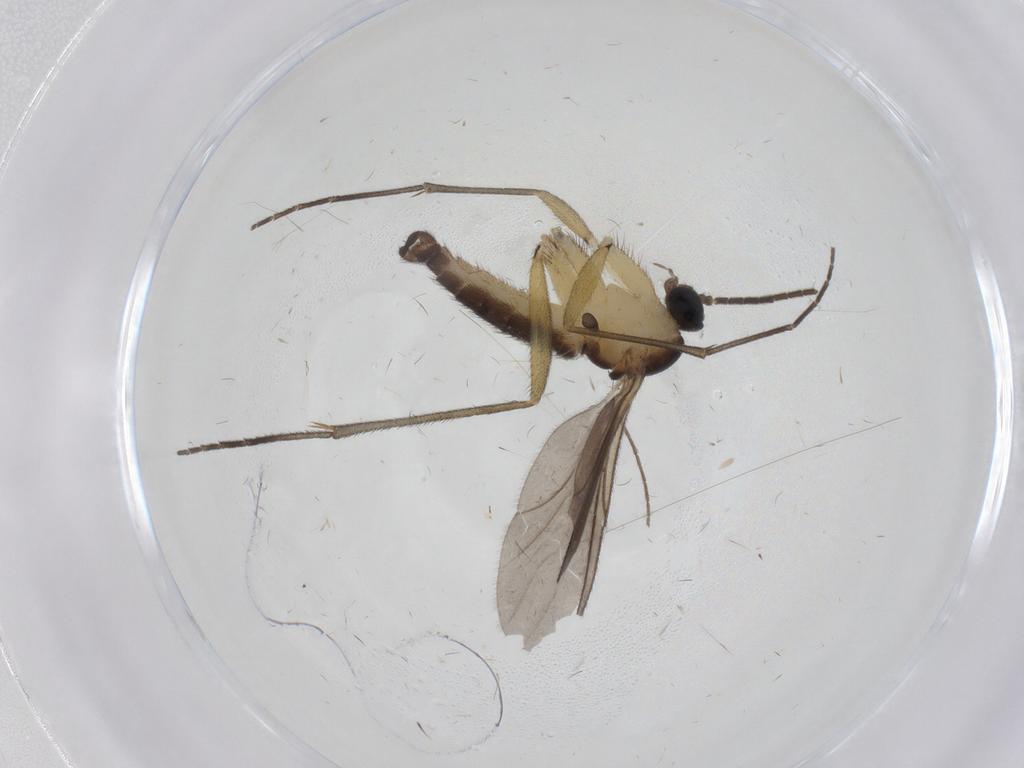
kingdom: Animalia
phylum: Arthropoda
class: Insecta
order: Diptera
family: Sciaridae
